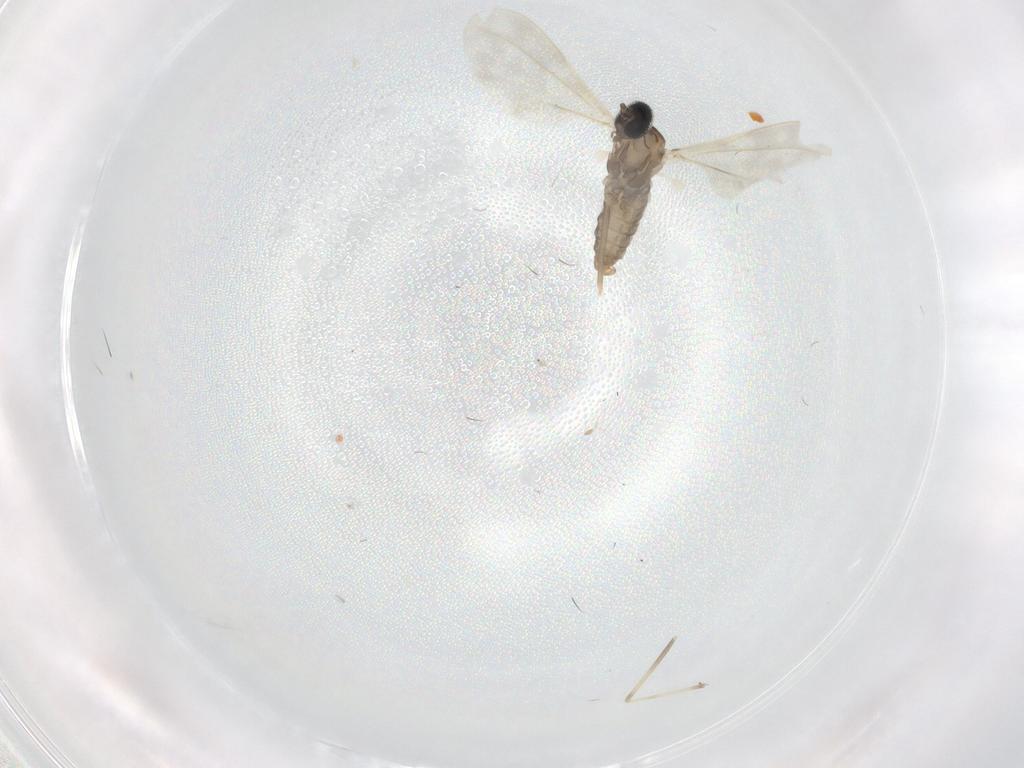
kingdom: Animalia
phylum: Arthropoda
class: Insecta
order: Diptera
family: Cecidomyiidae
